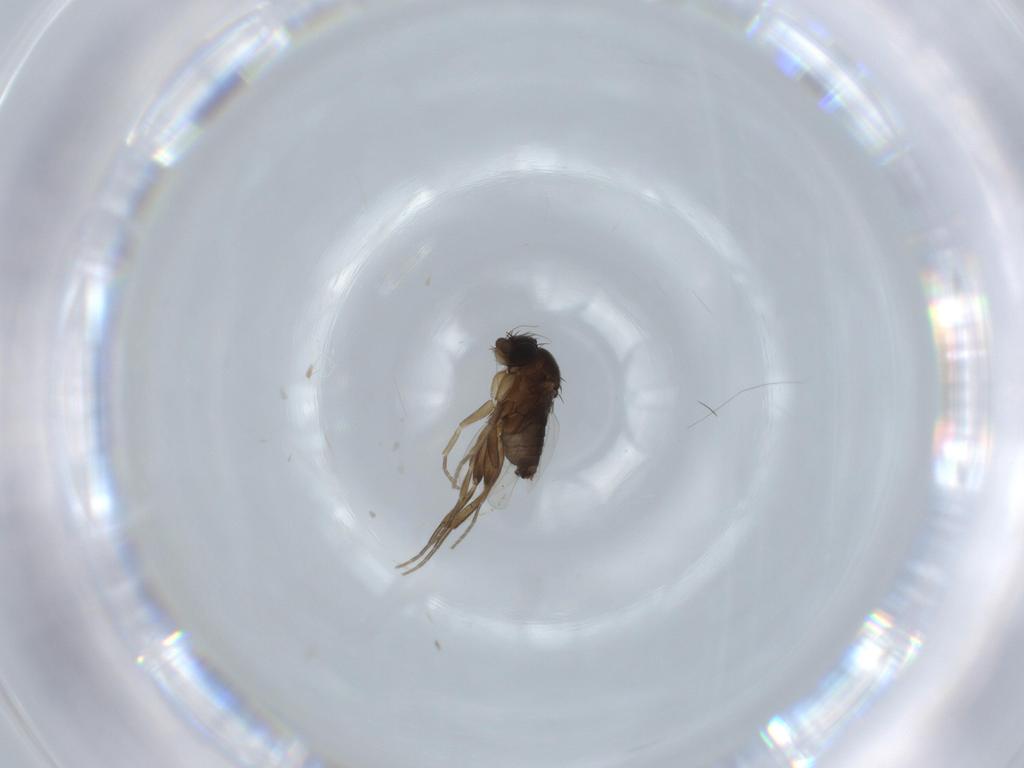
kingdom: Animalia
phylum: Arthropoda
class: Insecta
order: Diptera
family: Phoridae
